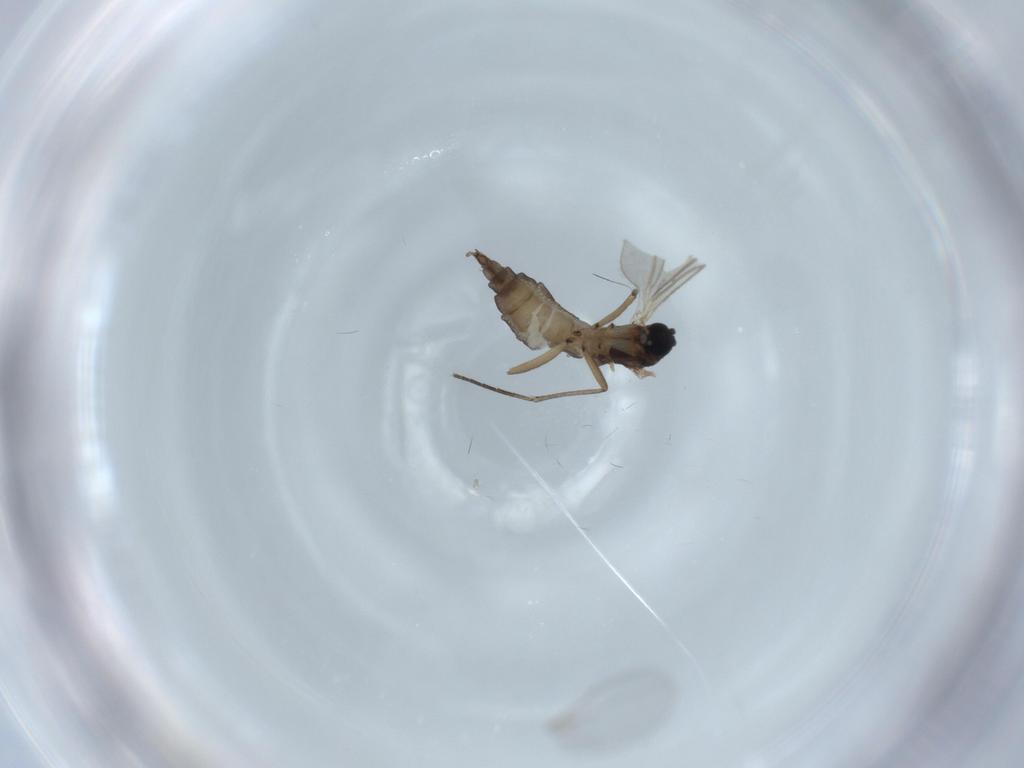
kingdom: Animalia
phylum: Arthropoda
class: Insecta
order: Diptera
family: Sciaridae
